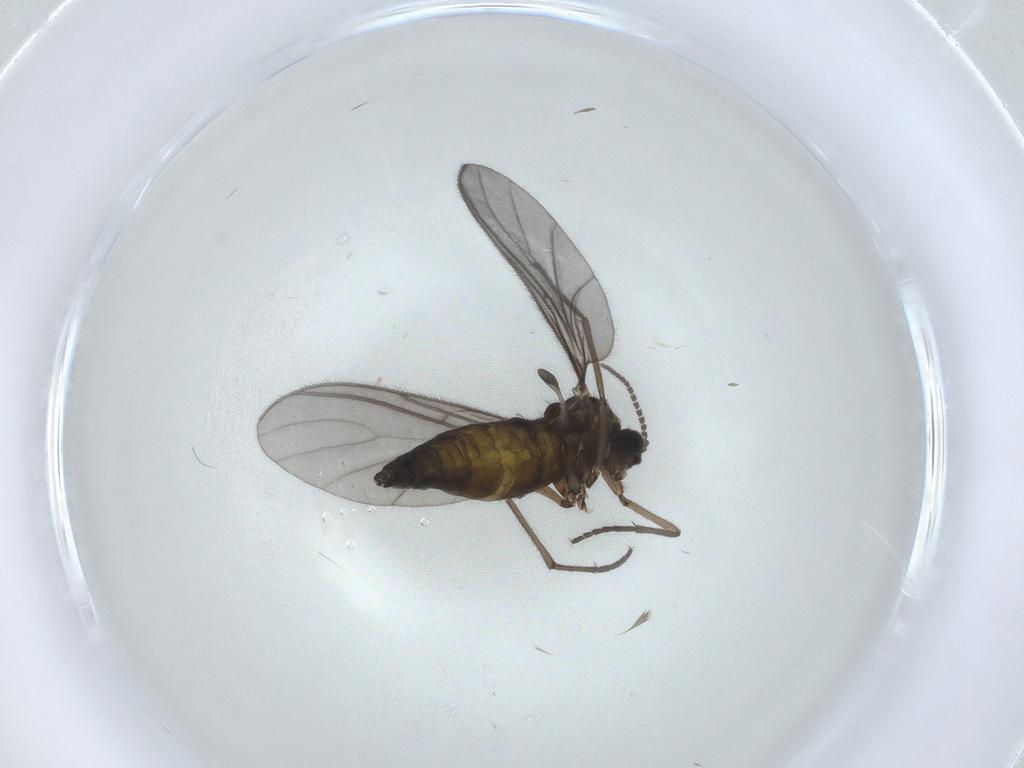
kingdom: Animalia
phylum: Arthropoda
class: Insecta
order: Diptera
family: Sciaridae
